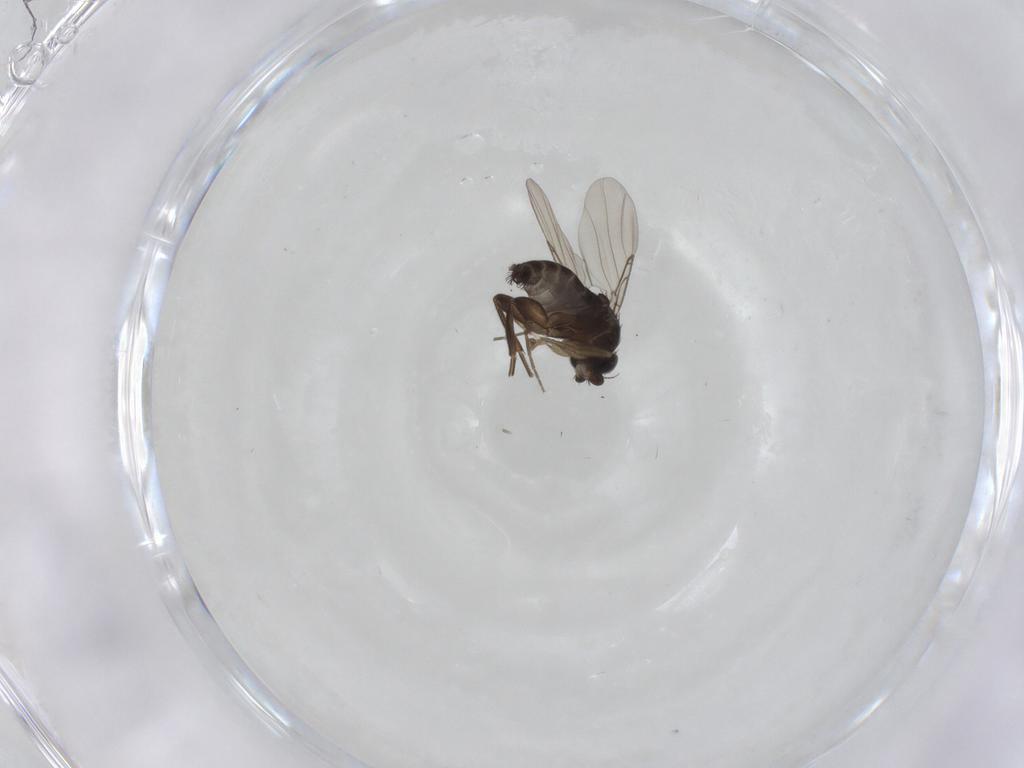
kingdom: Animalia
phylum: Arthropoda
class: Insecta
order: Diptera
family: Phoridae
